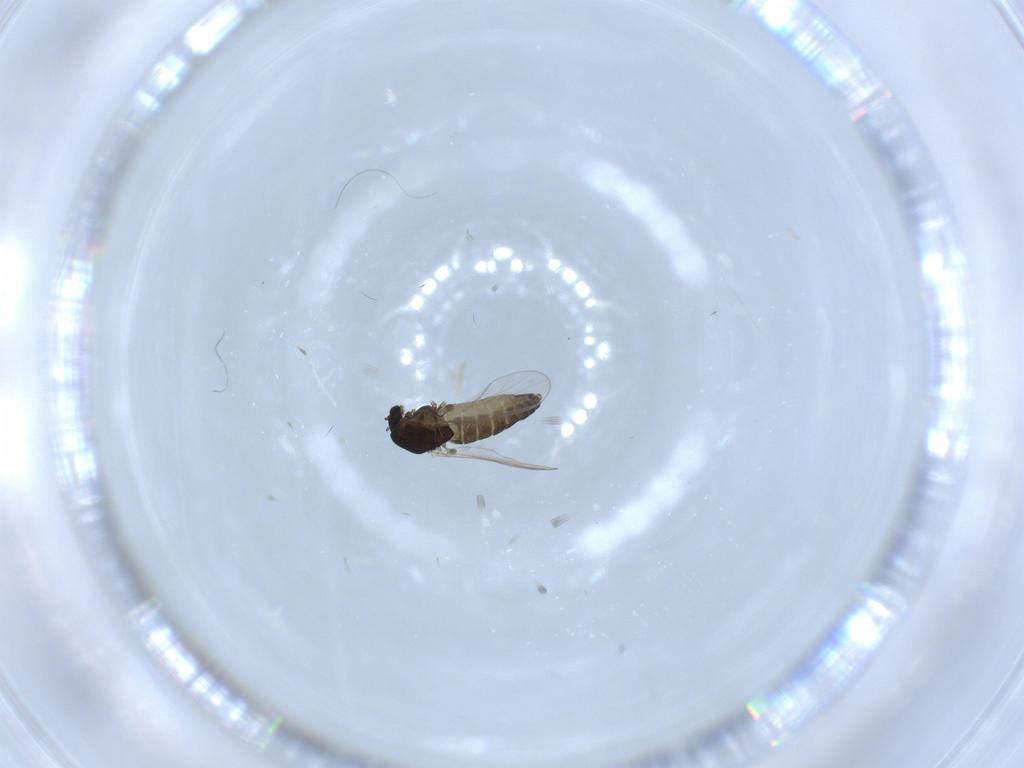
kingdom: Animalia
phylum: Arthropoda
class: Insecta
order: Diptera
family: Chironomidae
